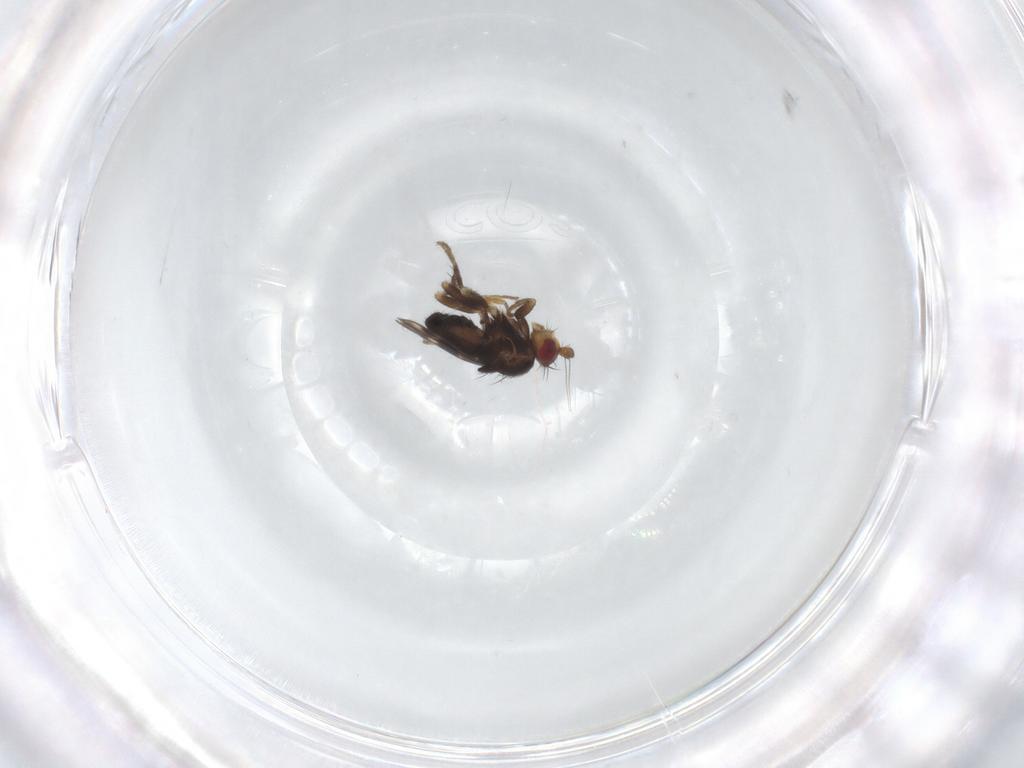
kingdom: Animalia
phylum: Arthropoda
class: Insecta
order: Diptera
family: Sphaeroceridae
